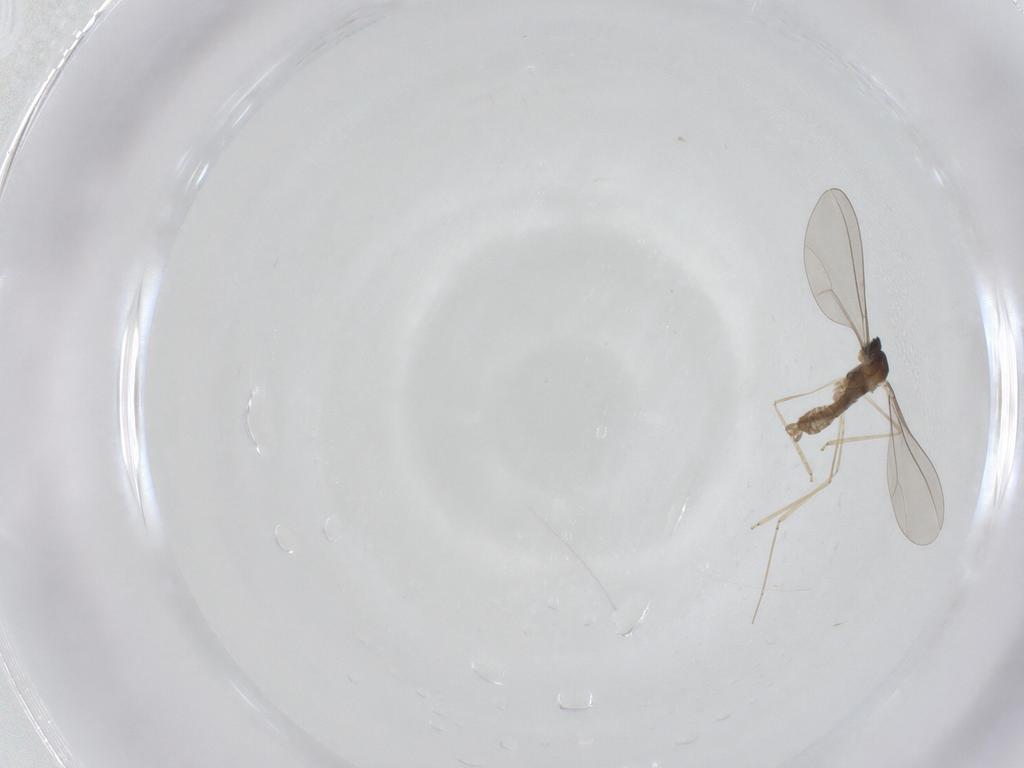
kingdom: Animalia
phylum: Arthropoda
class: Insecta
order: Diptera
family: Cecidomyiidae
